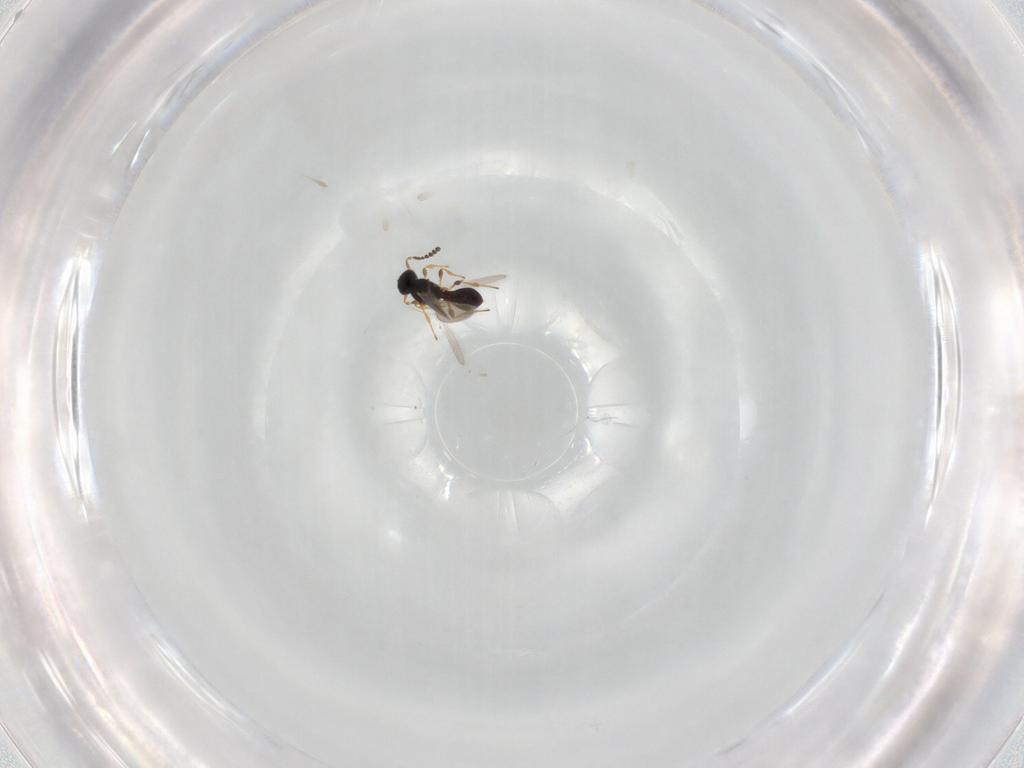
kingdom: Animalia
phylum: Arthropoda
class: Insecta
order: Hymenoptera
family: Platygastridae
